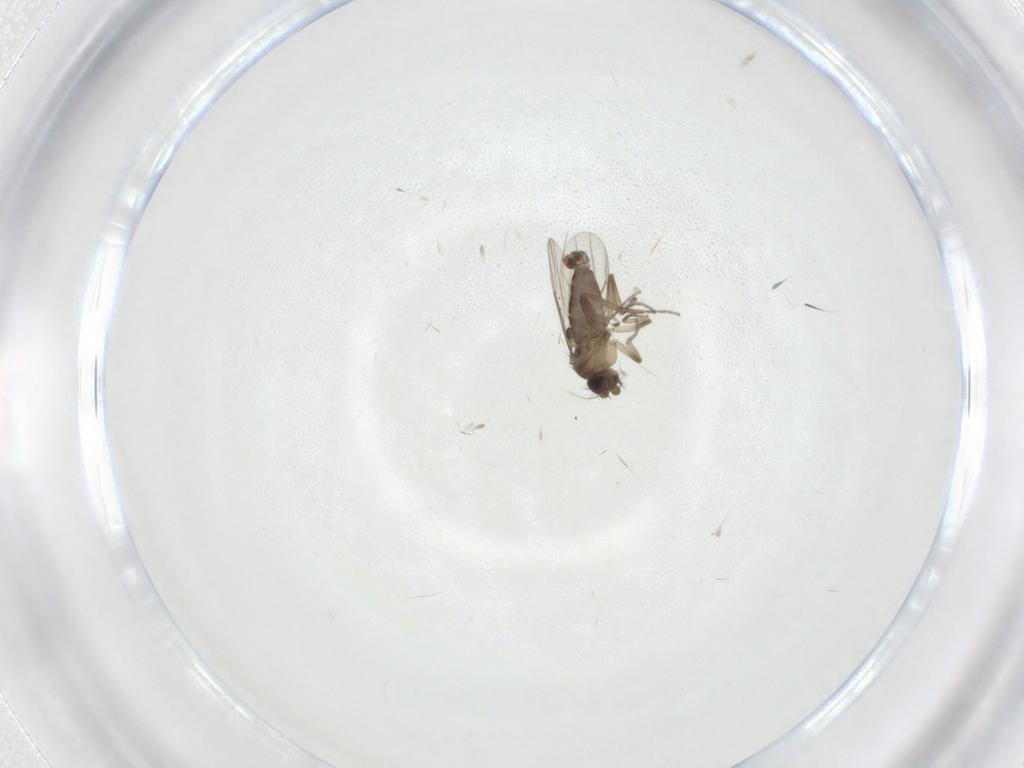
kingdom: Animalia
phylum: Arthropoda
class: Insecta
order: Diptera
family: Phoridae
